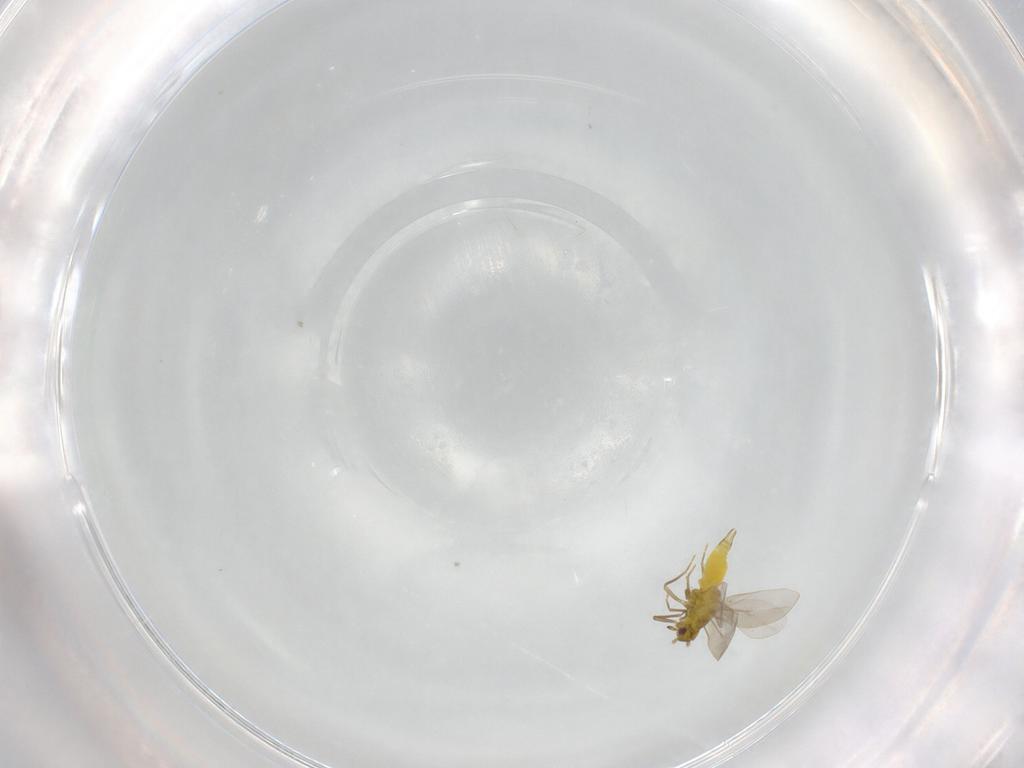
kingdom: Animalia
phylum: Arthropoda
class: Insecta
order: Hemiptera
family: Aleyrodidae
